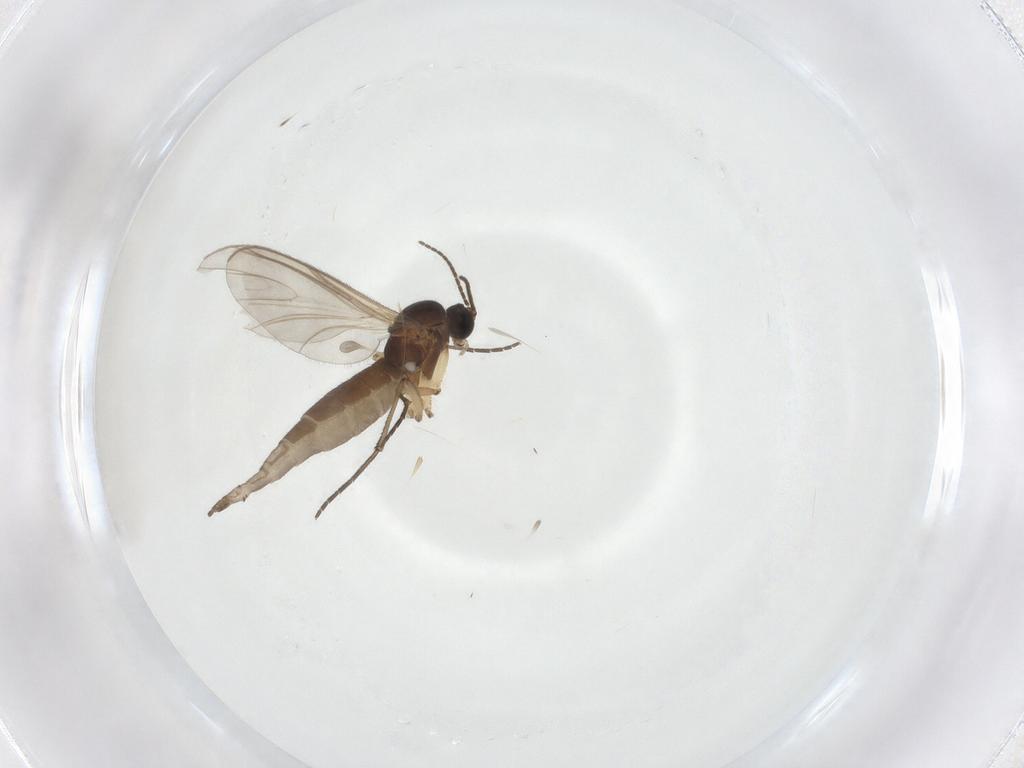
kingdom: Animalia
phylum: Arthropoda
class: Insecta
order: Diptera
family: Sciaridae
